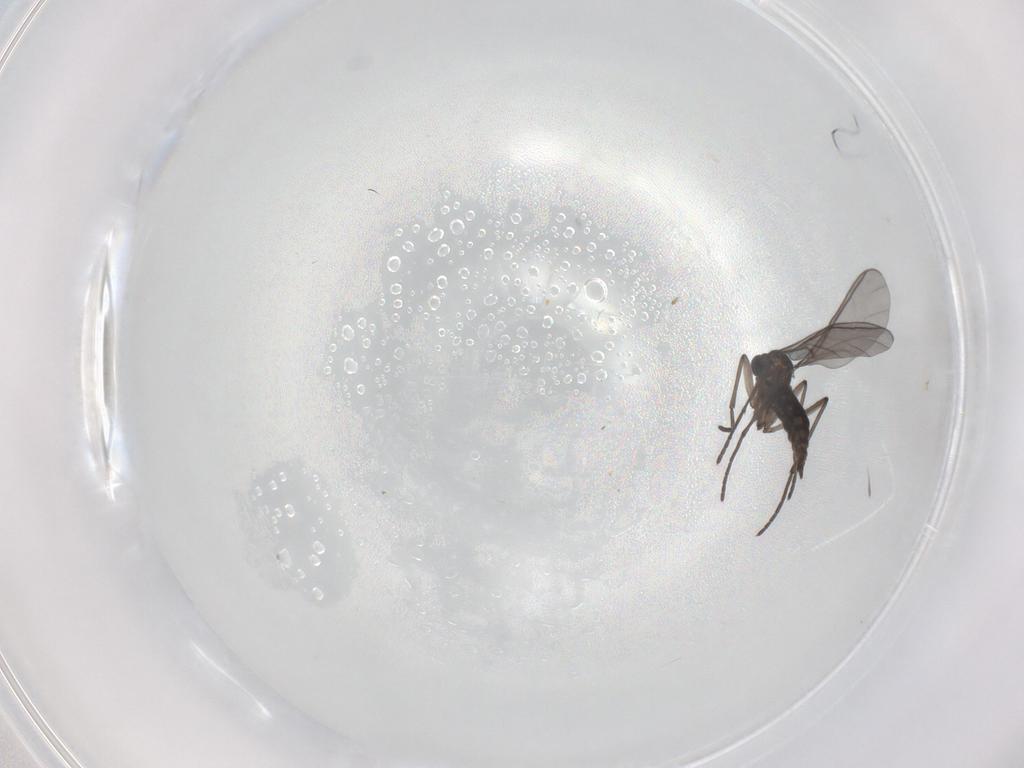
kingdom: Animalia
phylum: Arthropoda
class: Insecta
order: Diptera
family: Sciaridae
